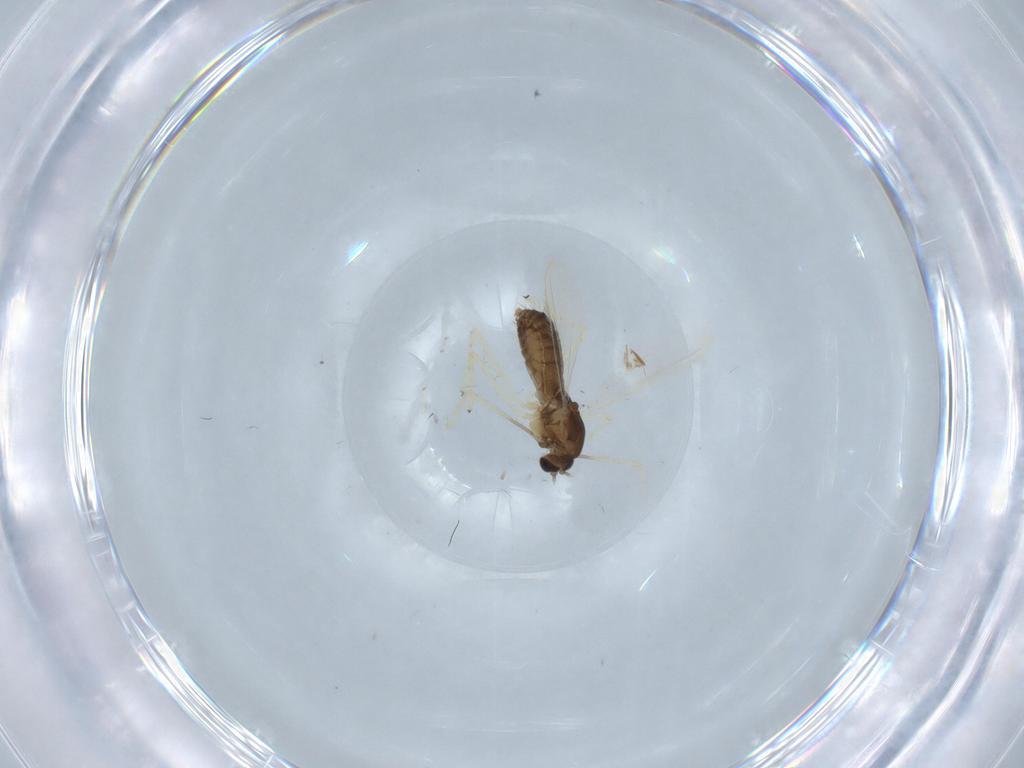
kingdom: Animalia
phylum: Arthropoda
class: Insecta
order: Diptera
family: Chironomidae
